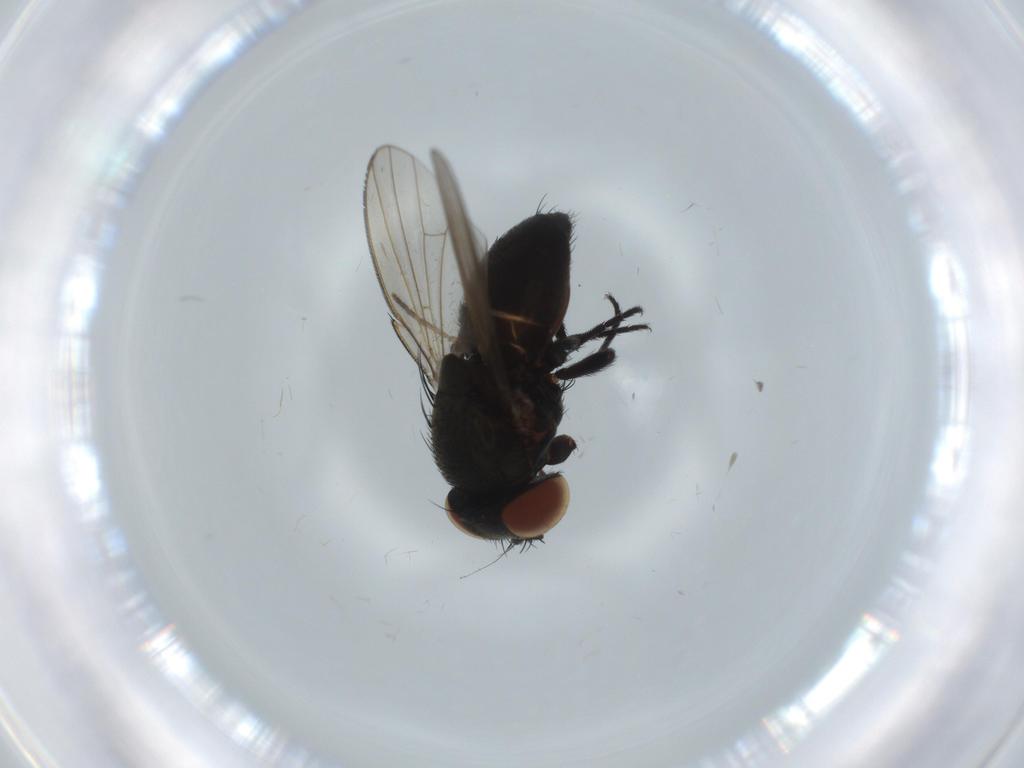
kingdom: Animalia
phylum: Arthropoda
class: Insecta
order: Diptera
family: Milichiidae
